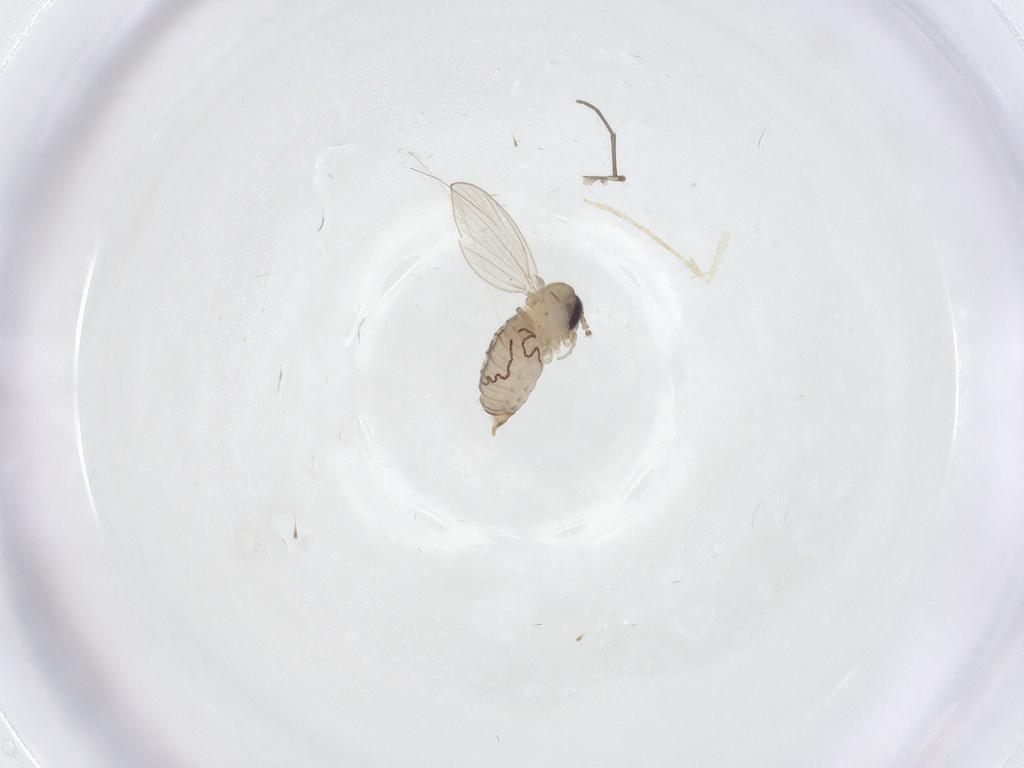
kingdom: Animalia
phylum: Arthropoda
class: Insecta
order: Diptera
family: Psychodidae
